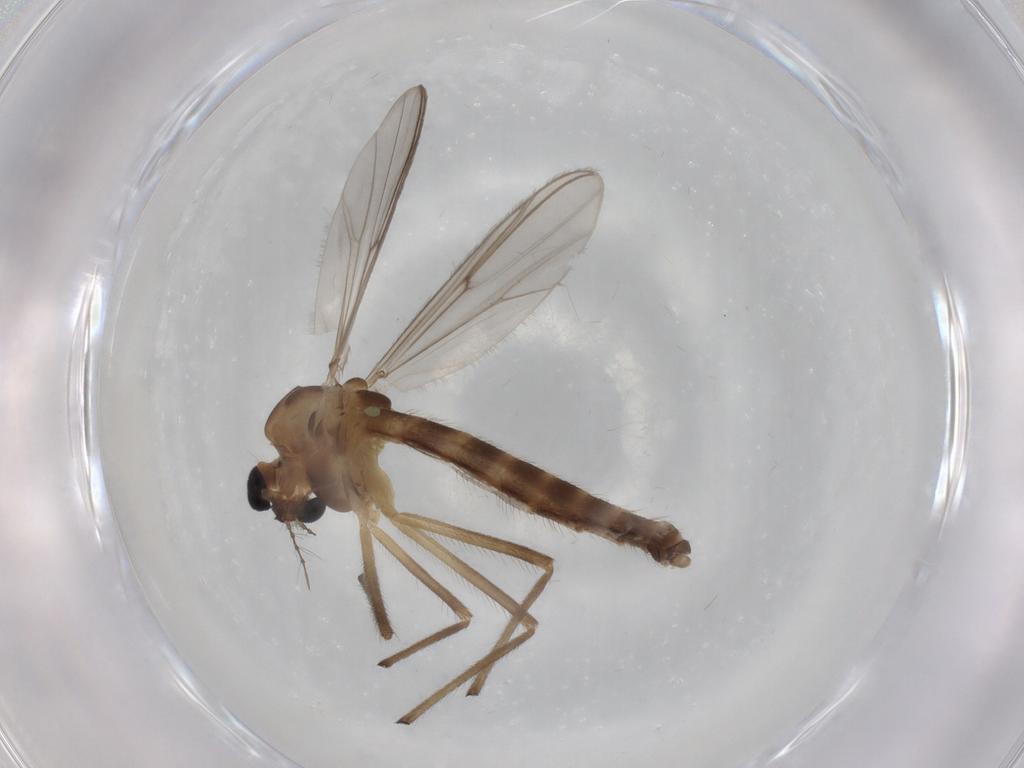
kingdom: Animalia
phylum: Arthropoda
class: Insecta
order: Diptera
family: Chironomidae
